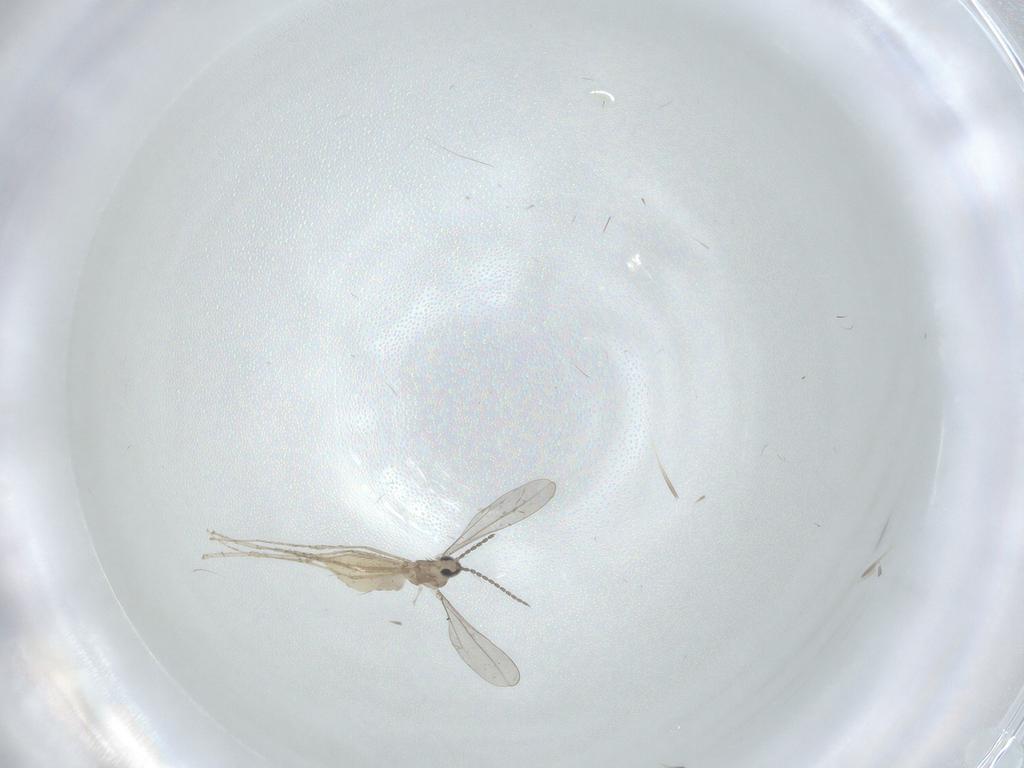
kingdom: Animalia
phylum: Arthropoda
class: Insecta
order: Diptera
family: Cecidomyiidae
